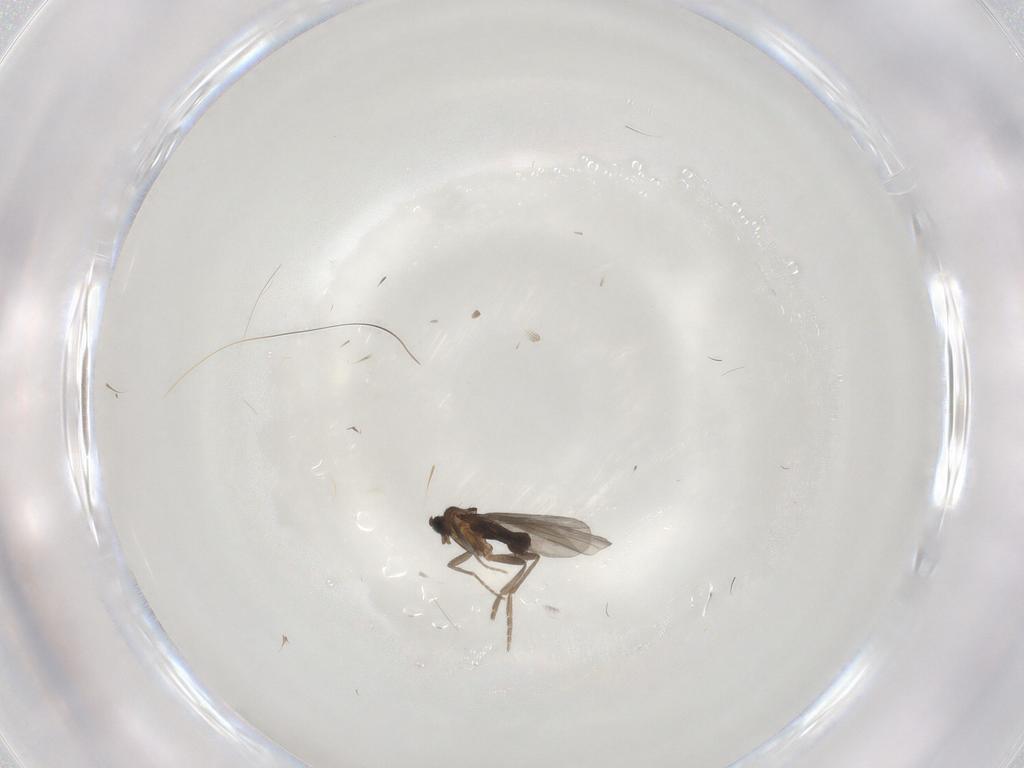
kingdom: Animalia
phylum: Arthropoda
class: Insecta
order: Diptera
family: Phoridae
